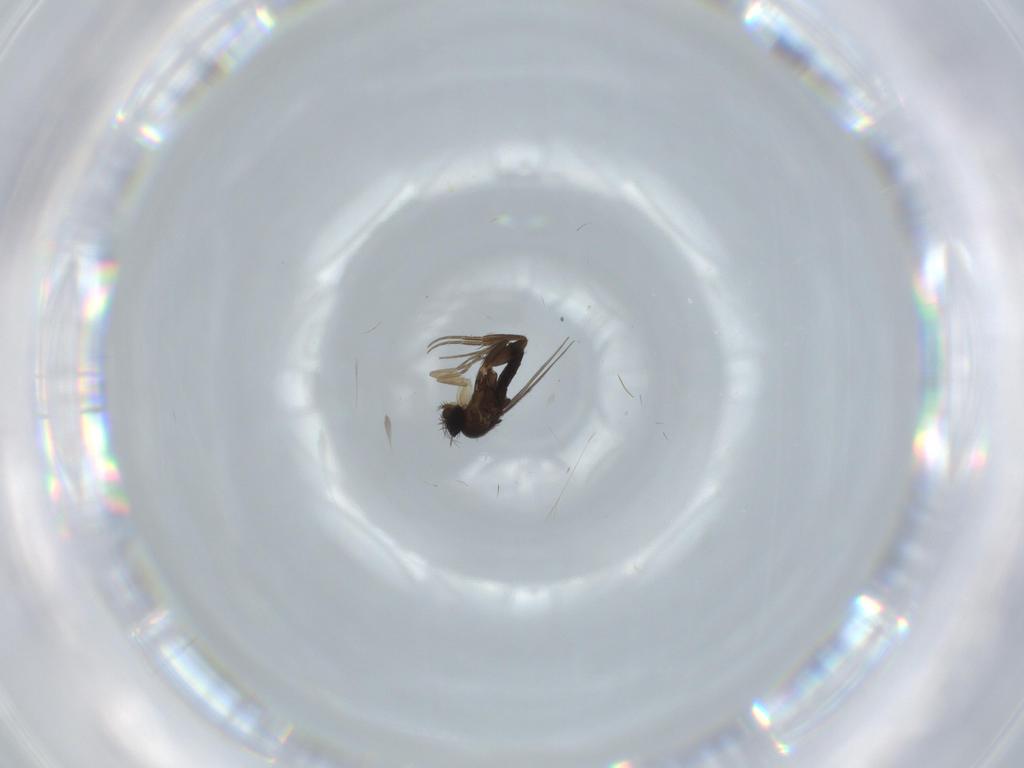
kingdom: Animalia
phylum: Arthropoda
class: Insecta
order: Diptera
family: Phoridae
